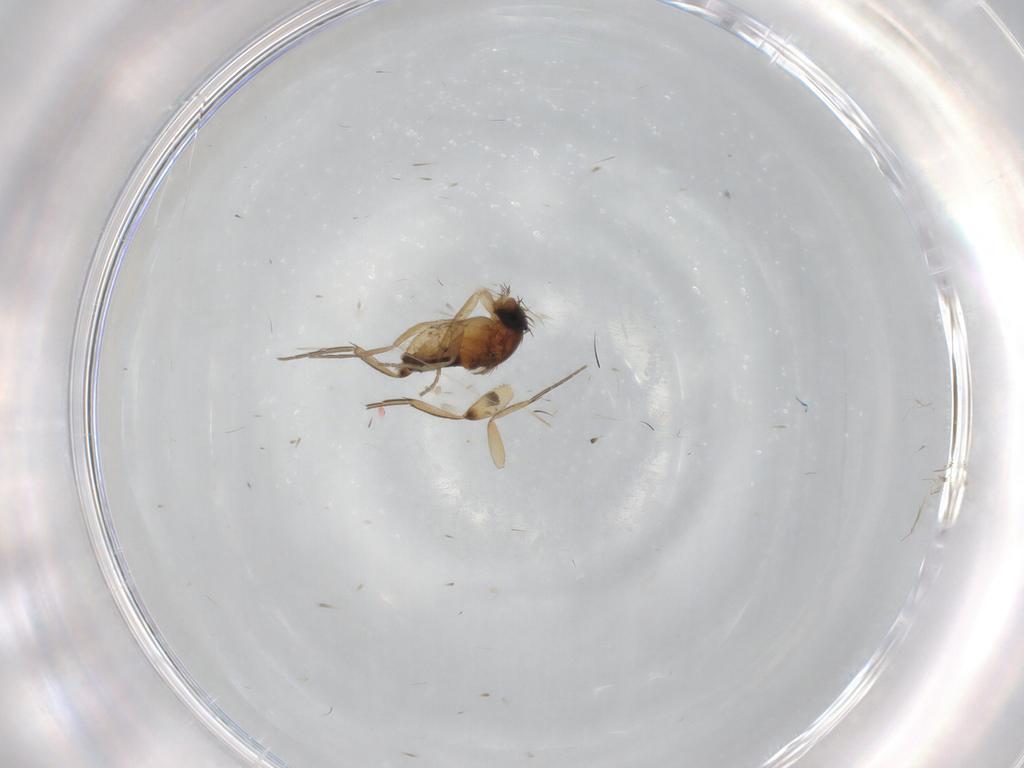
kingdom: Animalia
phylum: Arthropoda
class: Insecta
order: Diptera
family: Phoridae
